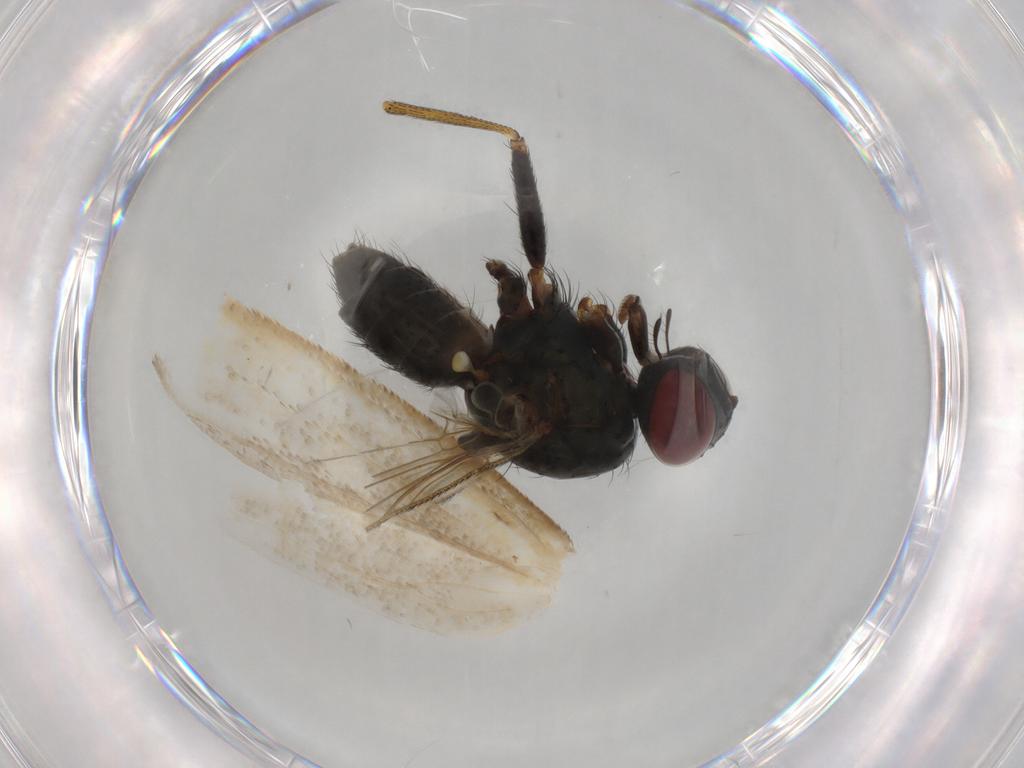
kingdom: Animalia
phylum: Arthropoda
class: Insecta
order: Diptera
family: Muscidae
